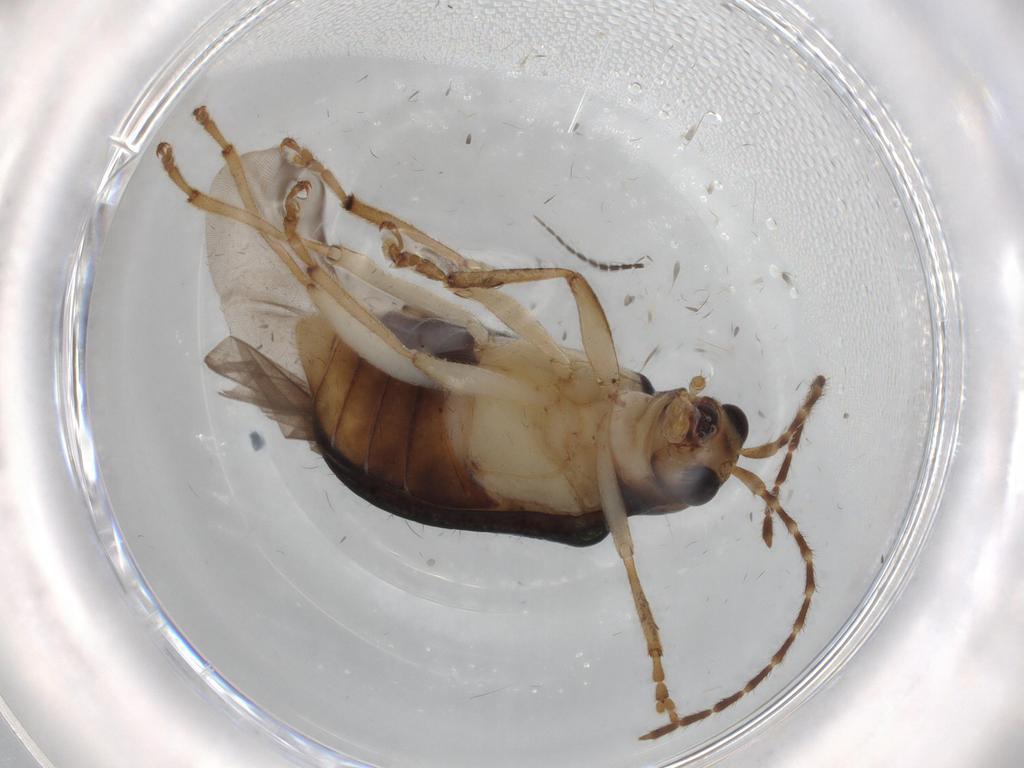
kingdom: Animalia
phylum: Arthropoda
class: Insecta
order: Coleoptera
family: Chrysomelidae
